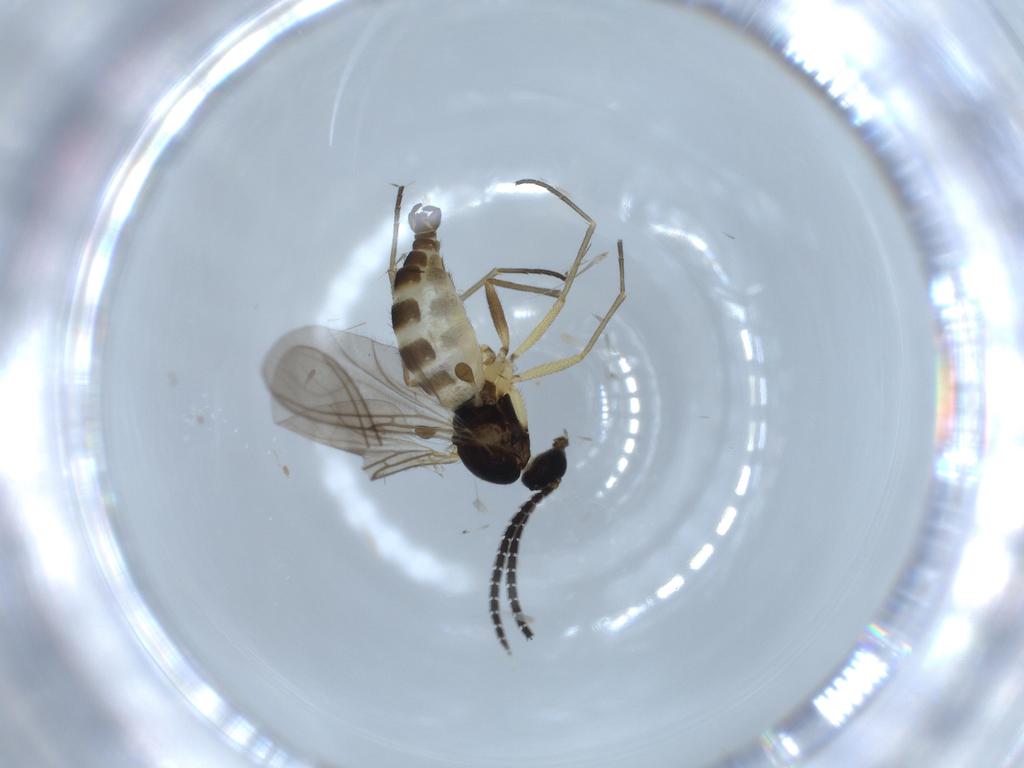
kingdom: Animalia
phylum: Arthropoda
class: Insecta
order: Diptera
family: Sciaridae
